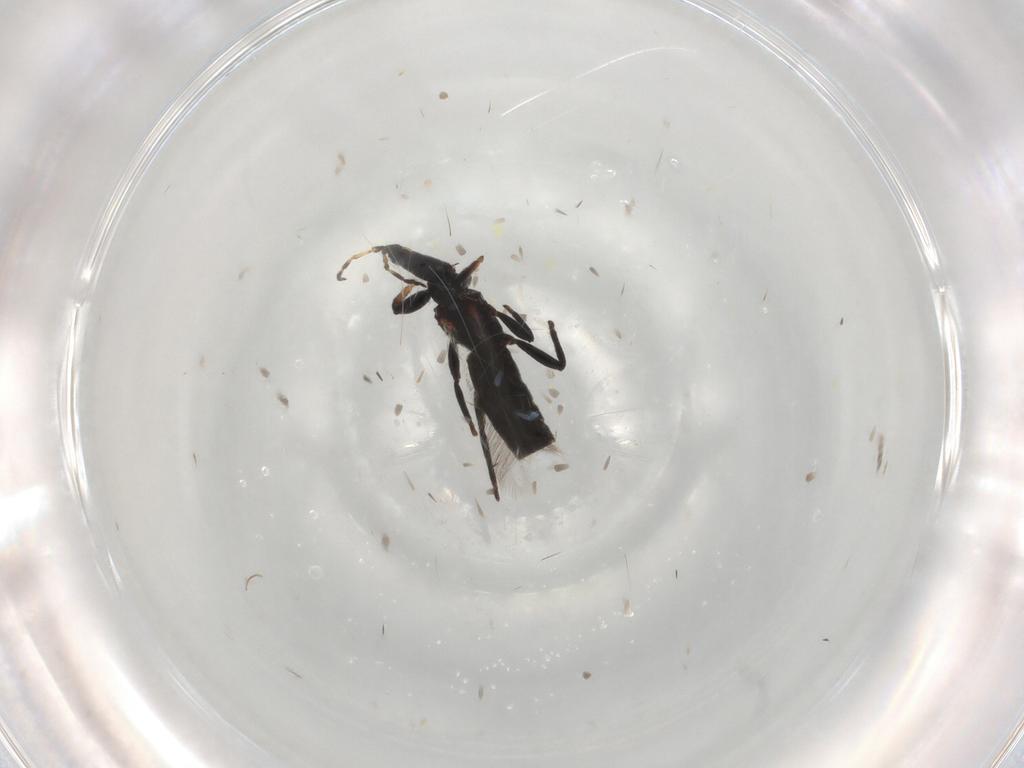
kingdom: Animalia
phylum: Arthropoda
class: Insecta
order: Thysanoptera
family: Phlaeothripidae
